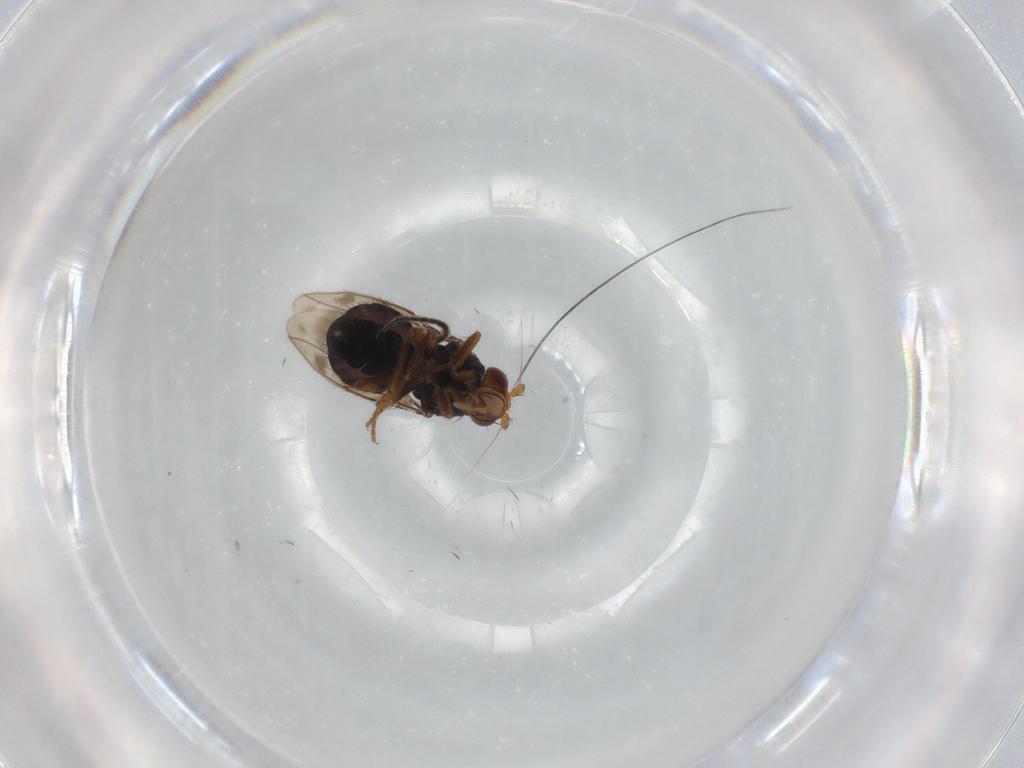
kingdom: Animalia
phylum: Arthropoda
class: Insecta
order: Diptera
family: Sphaeroceridae
